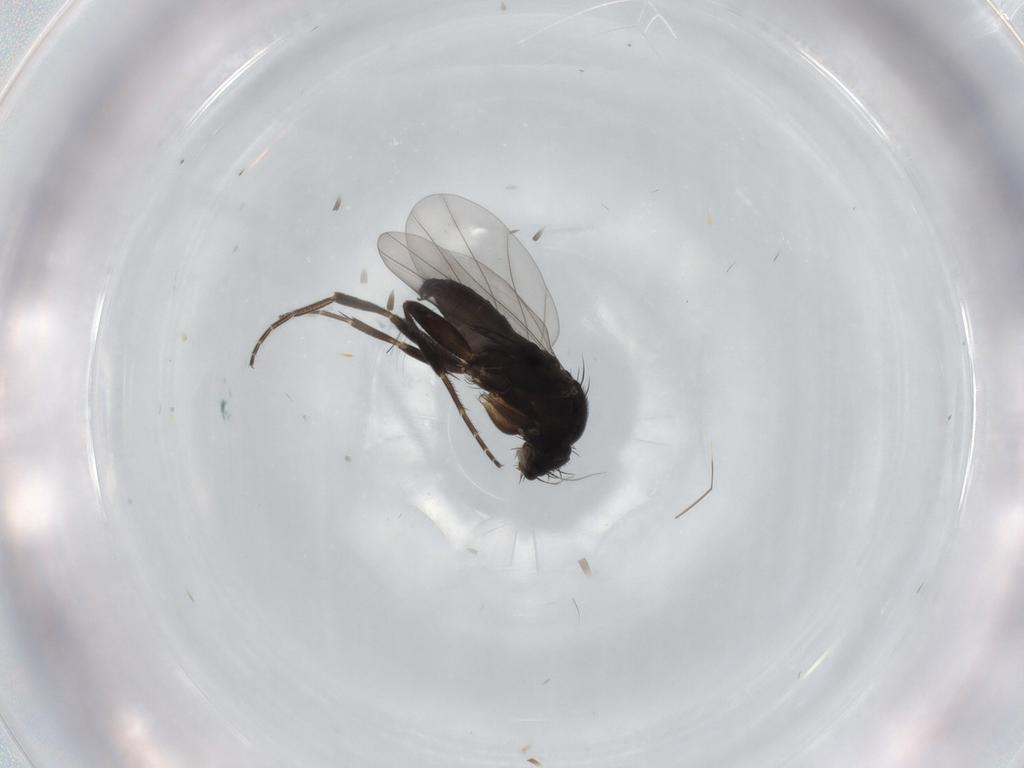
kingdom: Animalia
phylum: Arthropoda
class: Insecta
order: Diptera
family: Phoridae
